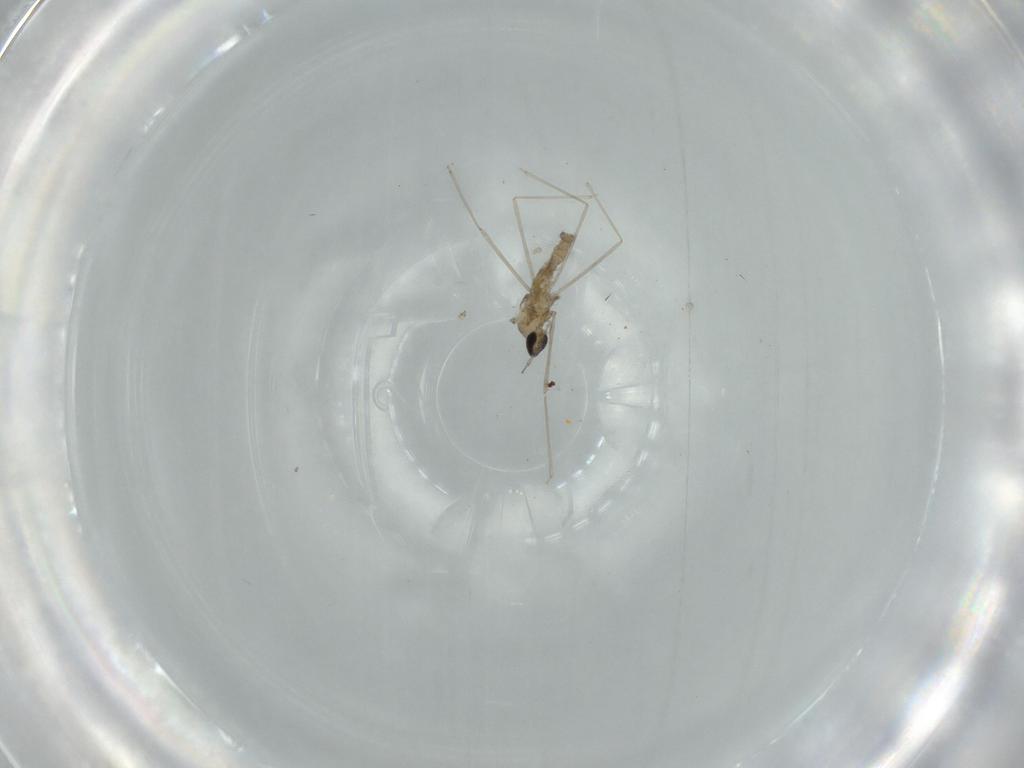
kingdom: Animalia
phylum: Arthropoda
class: Insecta
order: Diptera
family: Cecidomyiidae
